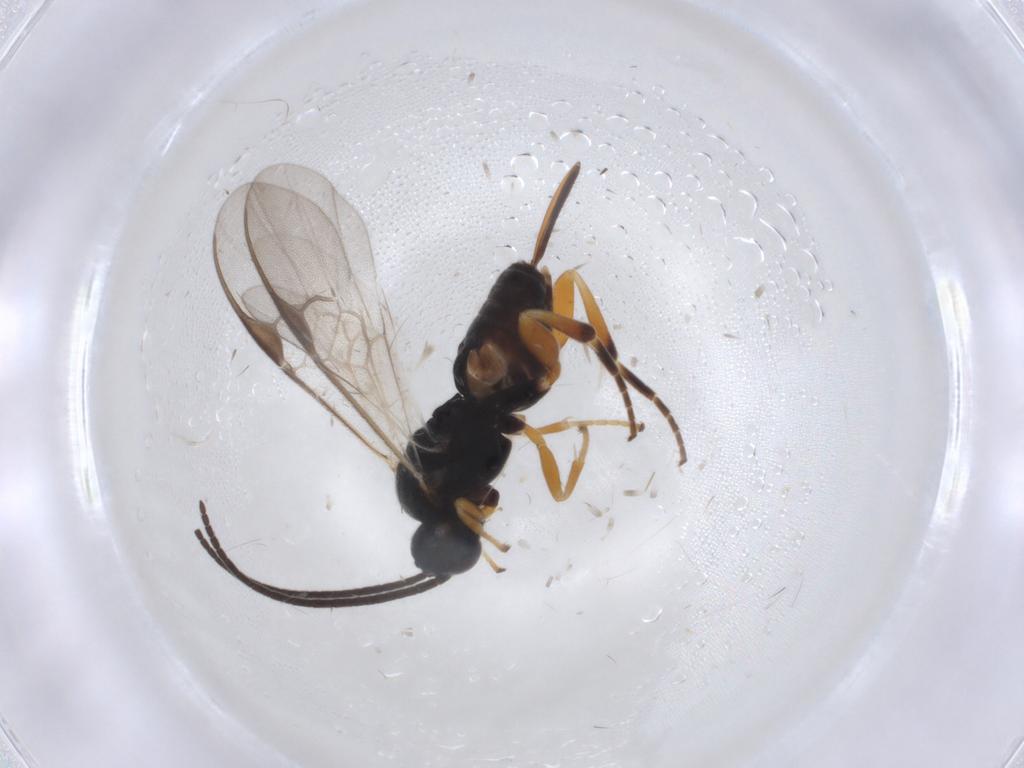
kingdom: Animalia
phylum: Arthropoda
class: Insecta
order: Hymenoptera
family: Braconidae
